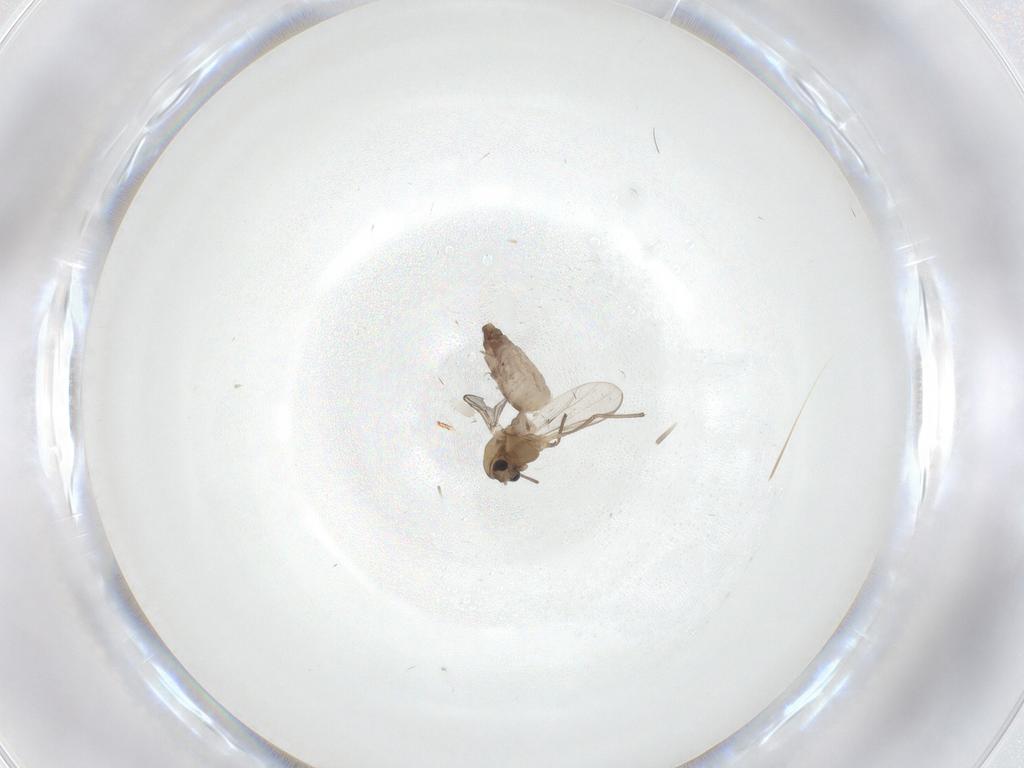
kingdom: Animalia
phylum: Arthropoda
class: Insecta
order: Diptera
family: Chironomidae
